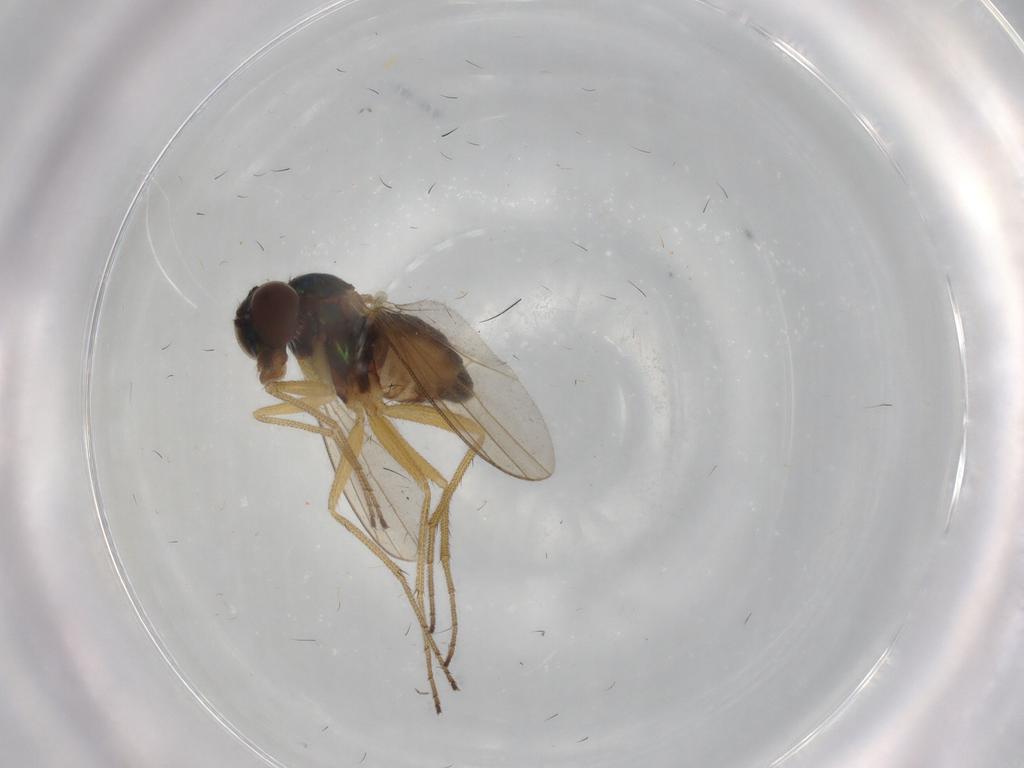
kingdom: Animalia
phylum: Arthropoda
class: Insecta
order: Diptera
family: Dolichopodidae
